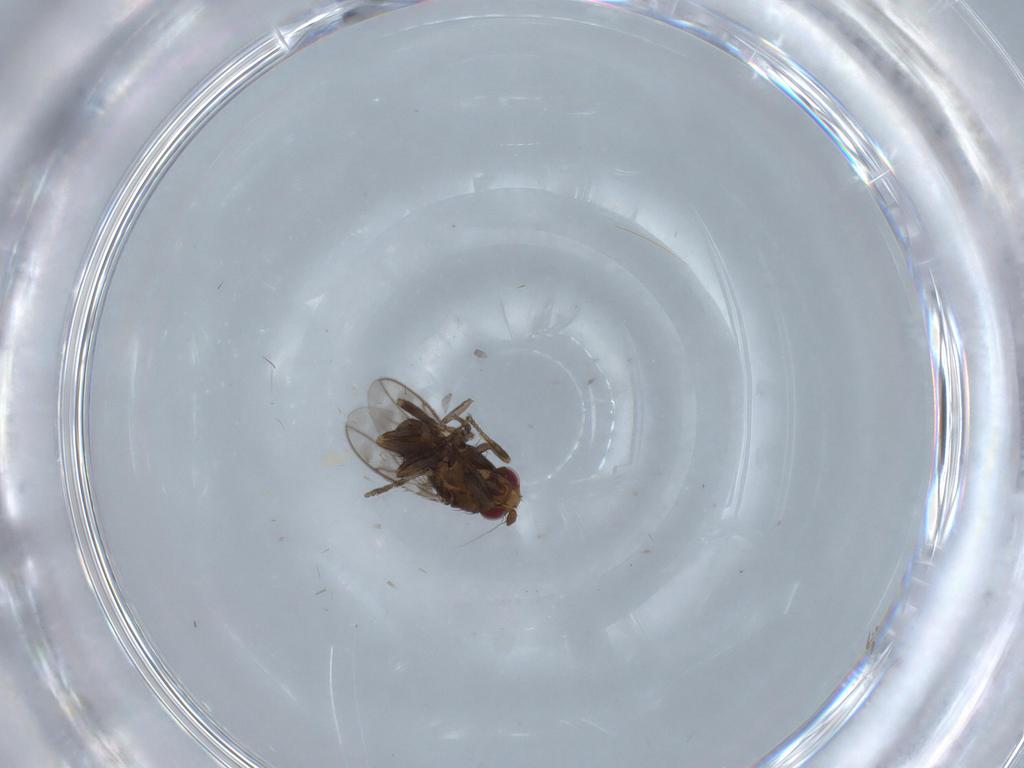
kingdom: Animalia
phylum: Arthropoda
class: Insecta
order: Diptera
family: Sphaeroceridae
